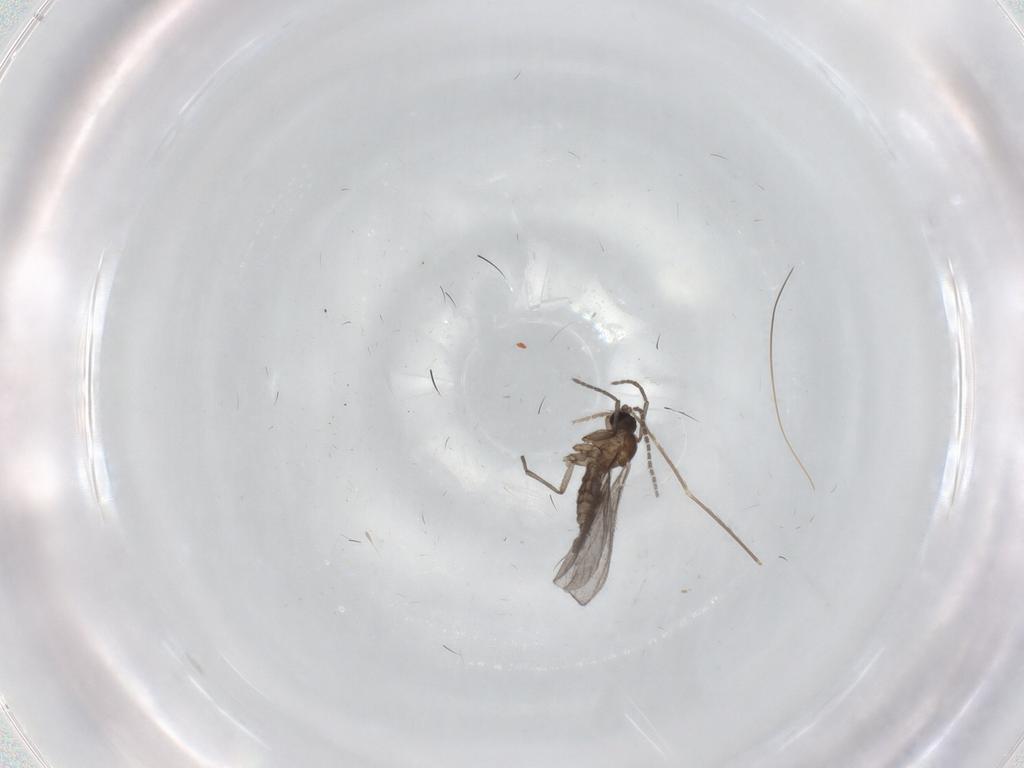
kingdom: Animalia
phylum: Arthropoda
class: Insecta
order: Diptera
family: Sciaridae
